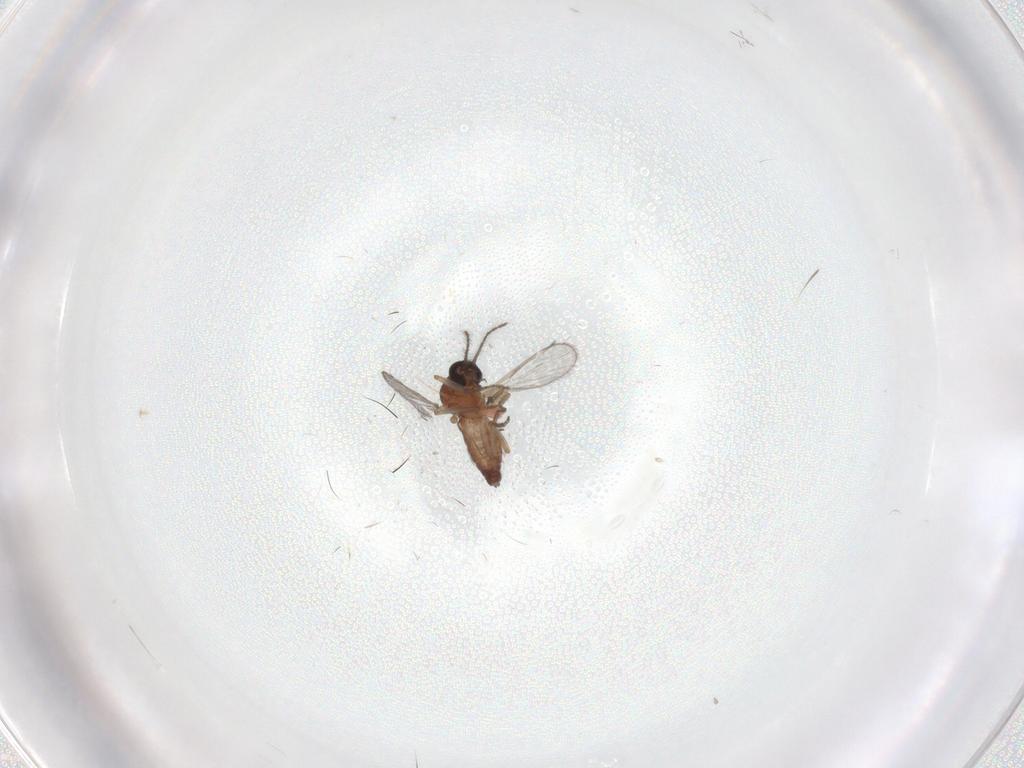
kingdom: Animalia
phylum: Arthropoda
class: Insecta
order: Diptera
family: Ceratopogonidae
